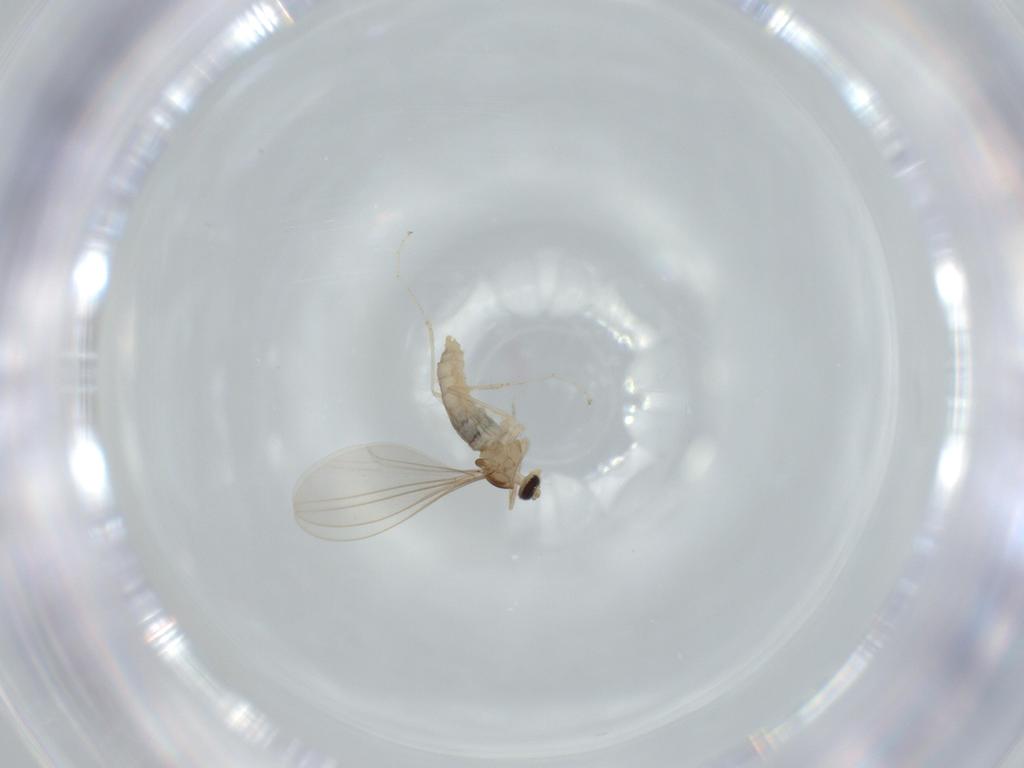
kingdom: Animalia
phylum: Arthropoda
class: Insecta
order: Diptera
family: Cecidomyiidae
